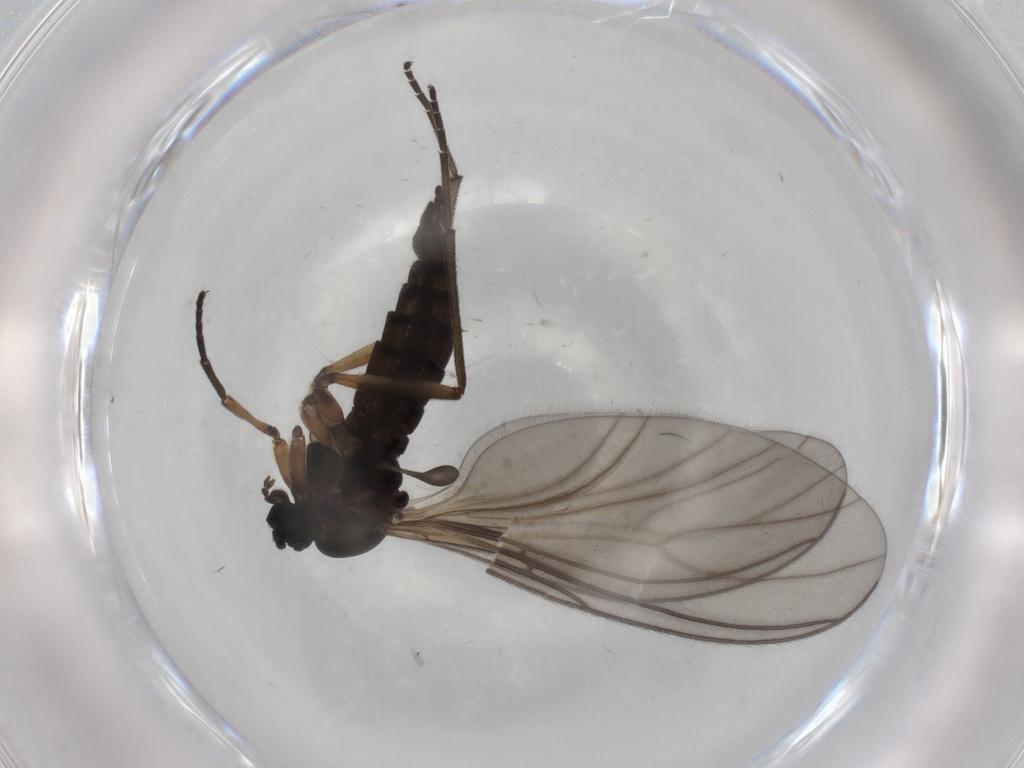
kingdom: Animalia
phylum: Arthropoda
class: Insecta
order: Diptera
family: Sciaridae
